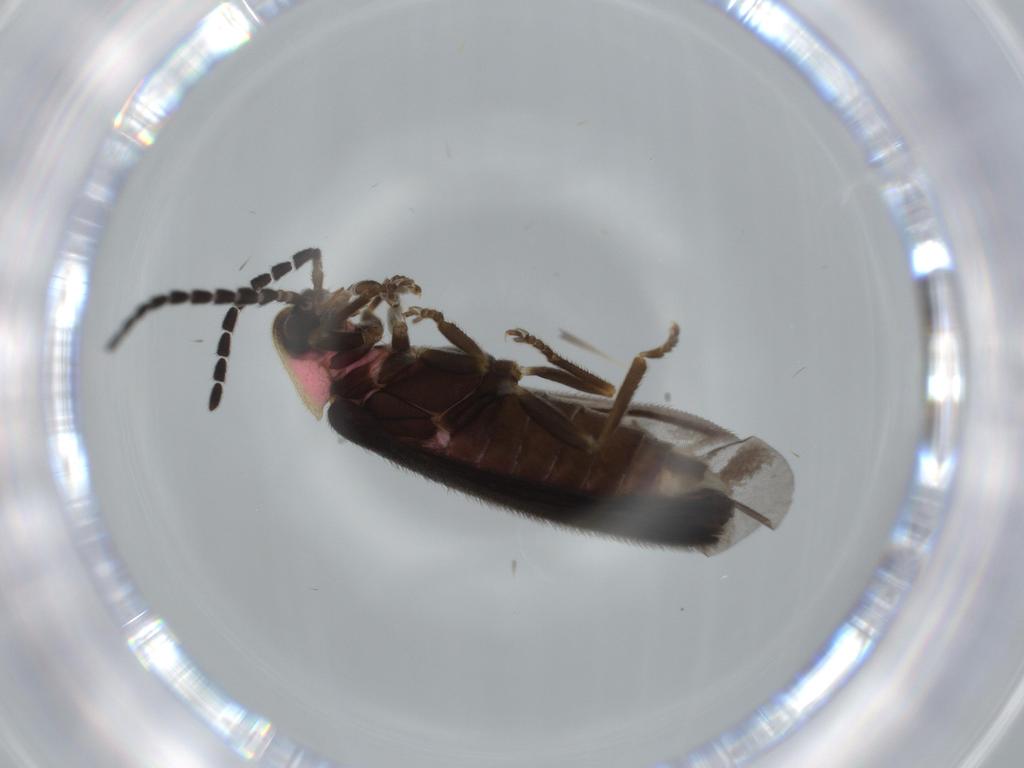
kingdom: Animalia
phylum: Arthropoda
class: Insecta
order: Coleoptera
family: Lampyridae
